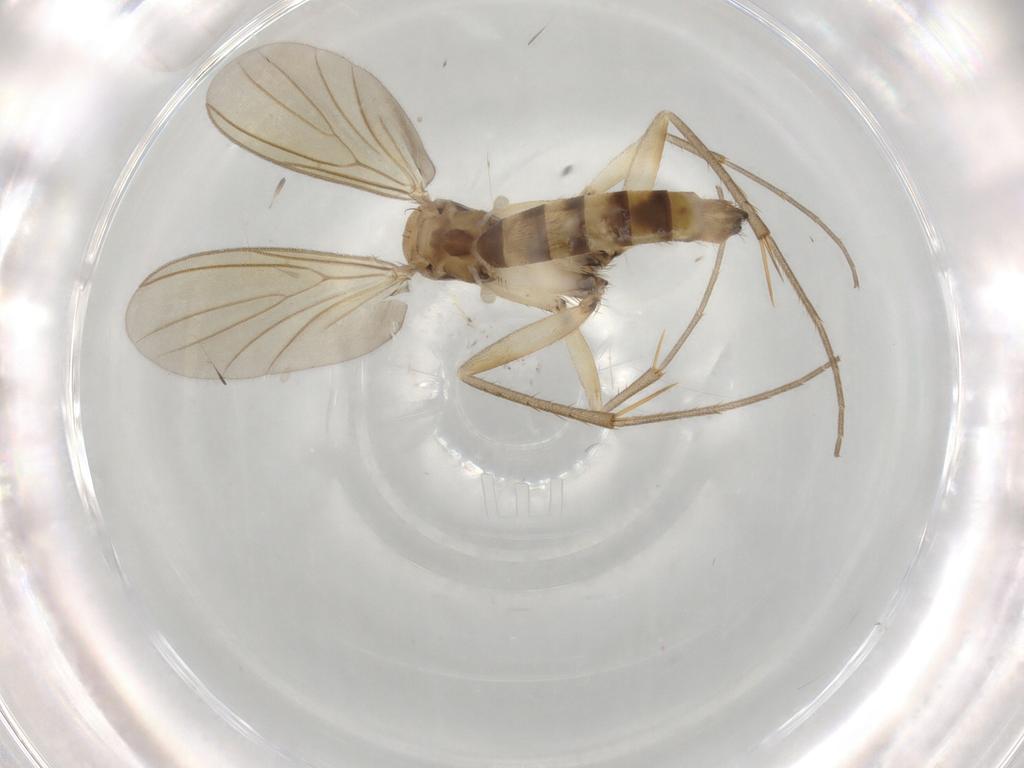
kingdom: Animalia
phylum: Arthropoda
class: Insecta
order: Diptera
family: Mycetophilidae
